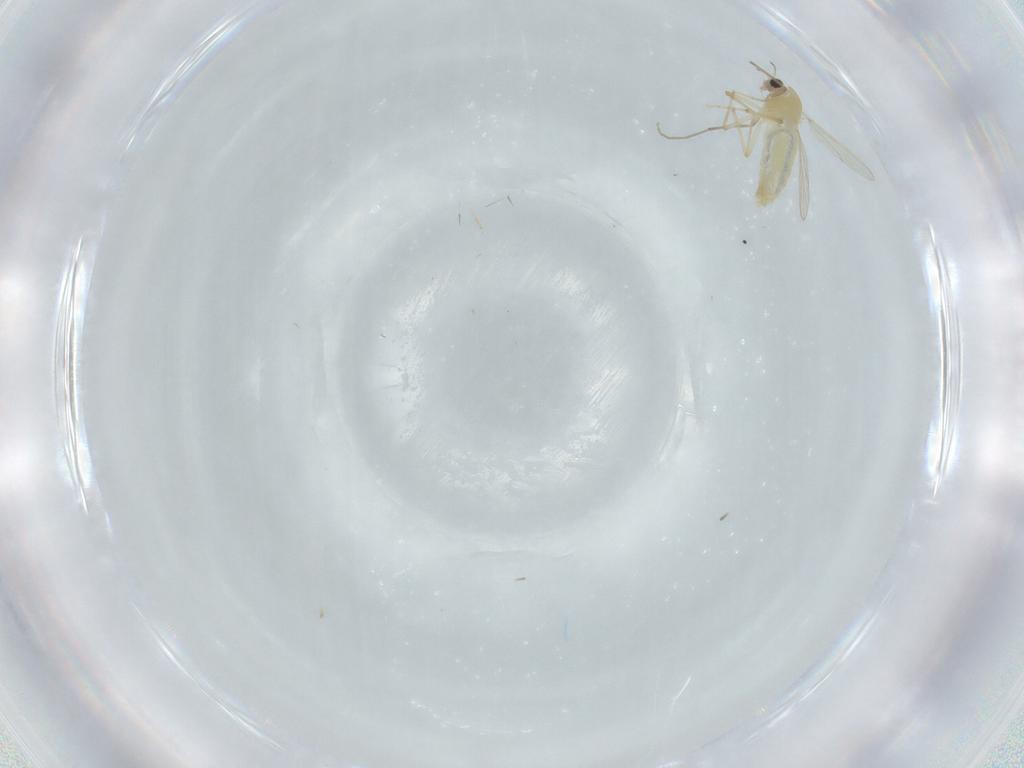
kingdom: Animalia
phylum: Arthropoda
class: Insecta
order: Diptera
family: Chironomidae
